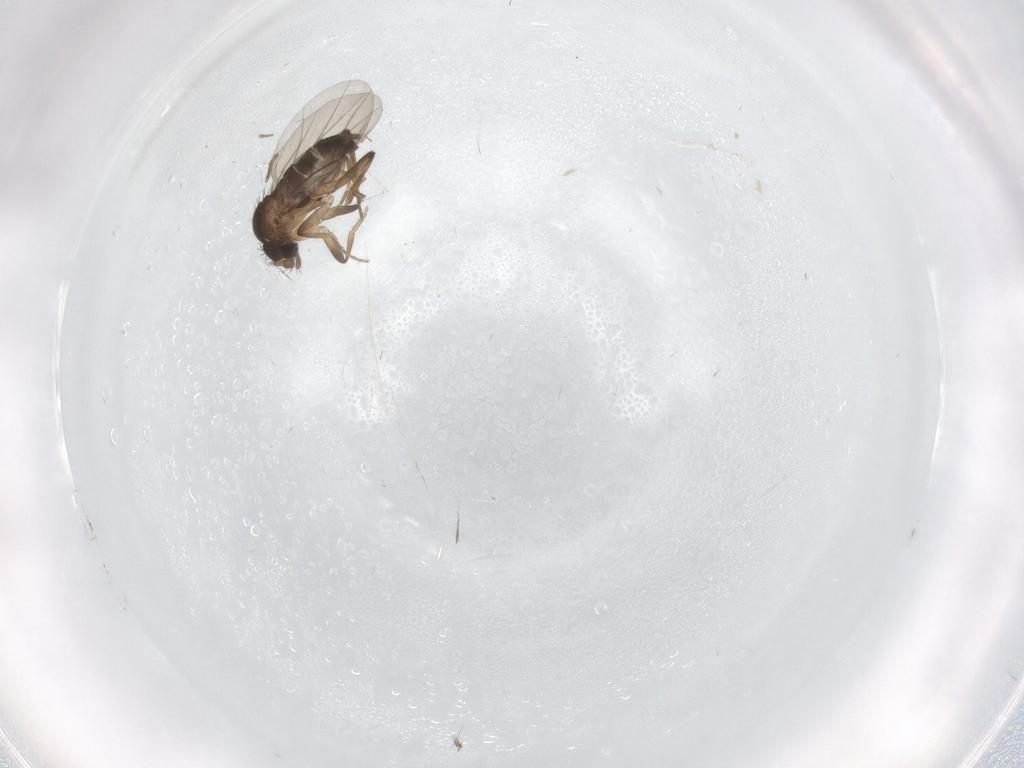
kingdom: Animalia
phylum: Arthropoda
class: Insecta
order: Diptera
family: Phoridae
